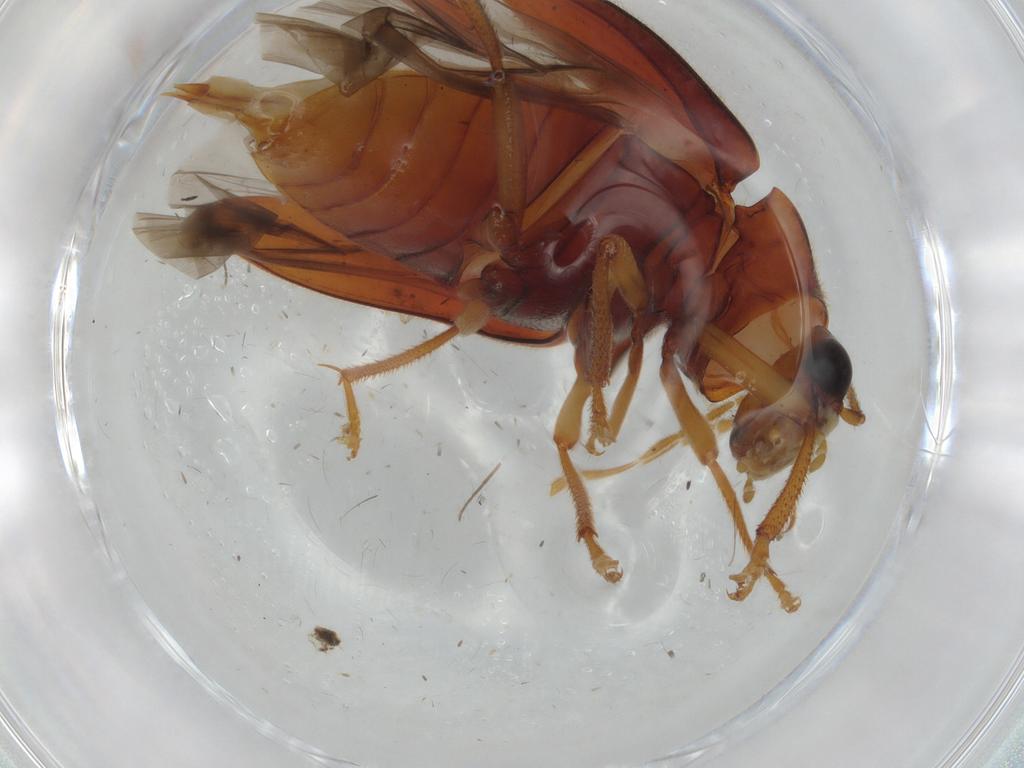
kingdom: Animalia
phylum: Arthropoda
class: Insecta
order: Coleoptera
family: Ptilodactylidae
